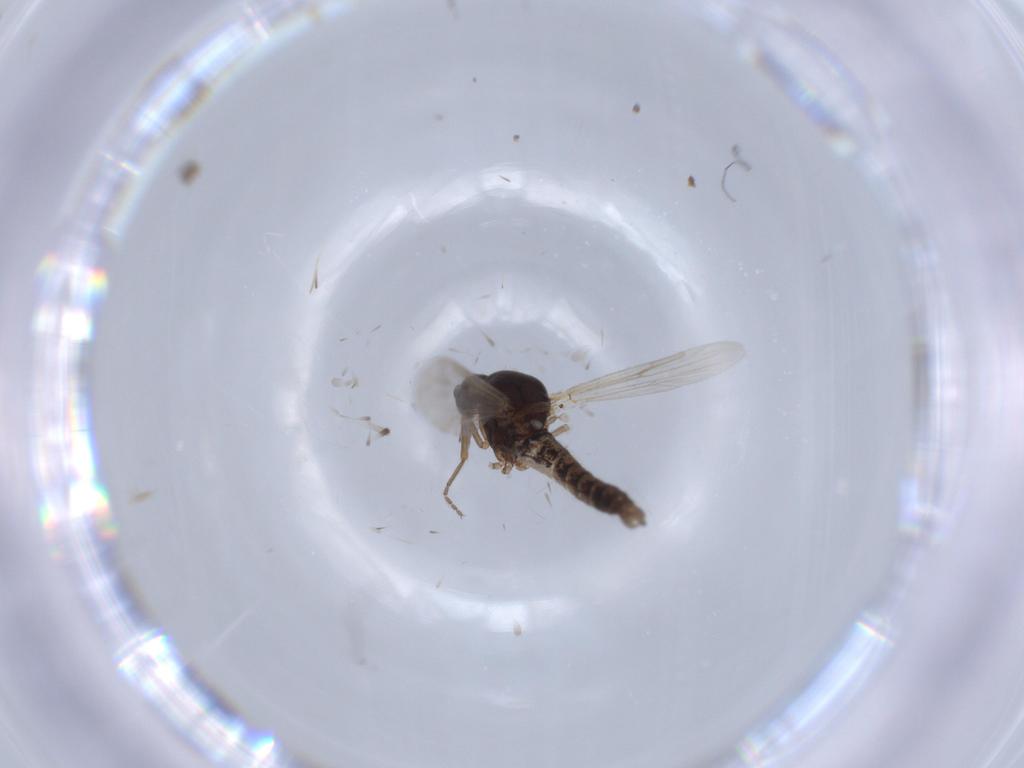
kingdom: Animalia
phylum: Arthropoda
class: Insecta
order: Diptera
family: Ceratopogonidae
